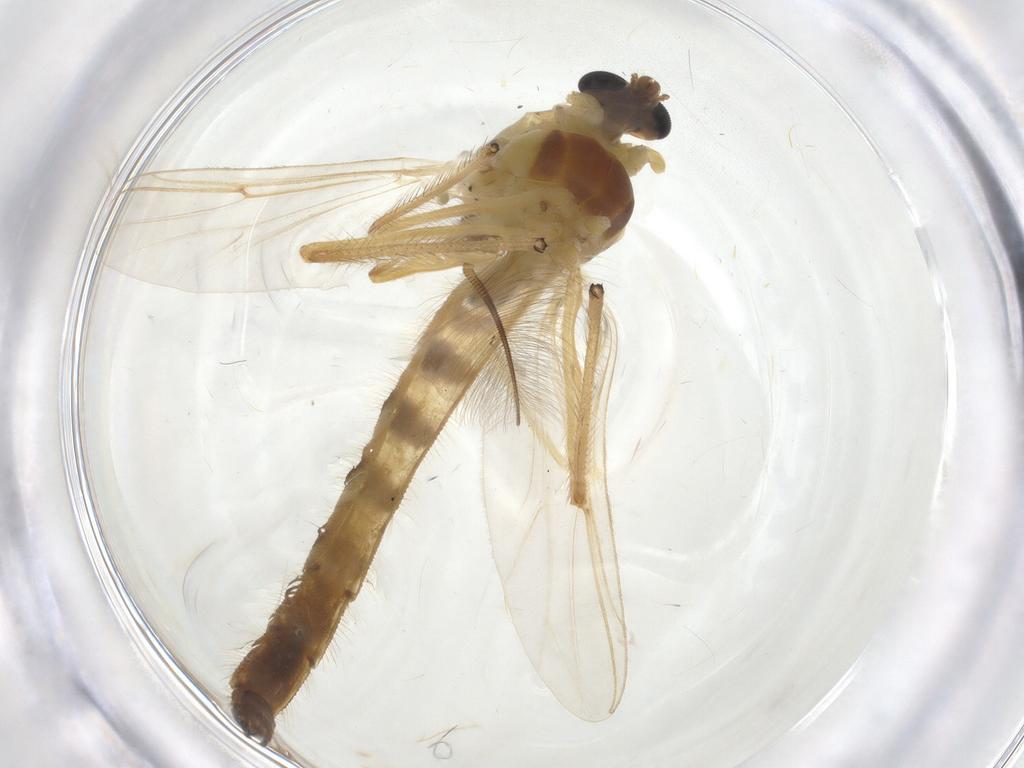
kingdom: Animalia
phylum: Arthropoda
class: Insecta
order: Diptera
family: Chironomidae
